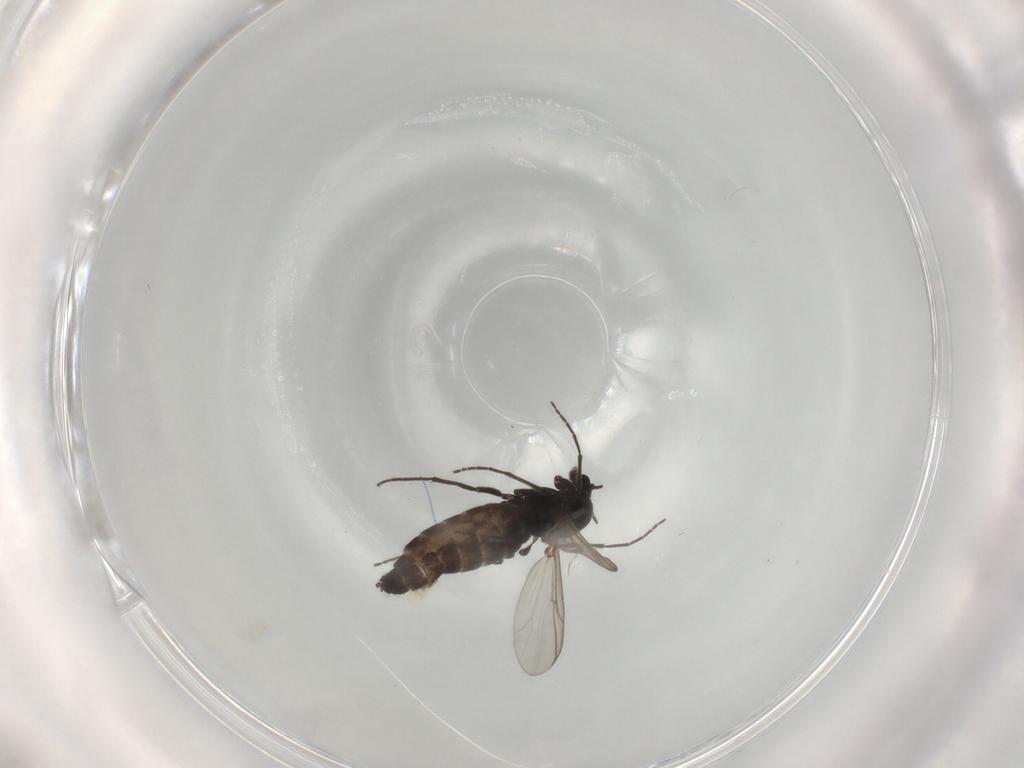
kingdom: Animalia
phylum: Arthropoda
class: Insecta
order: Diptera
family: Chironomidae
